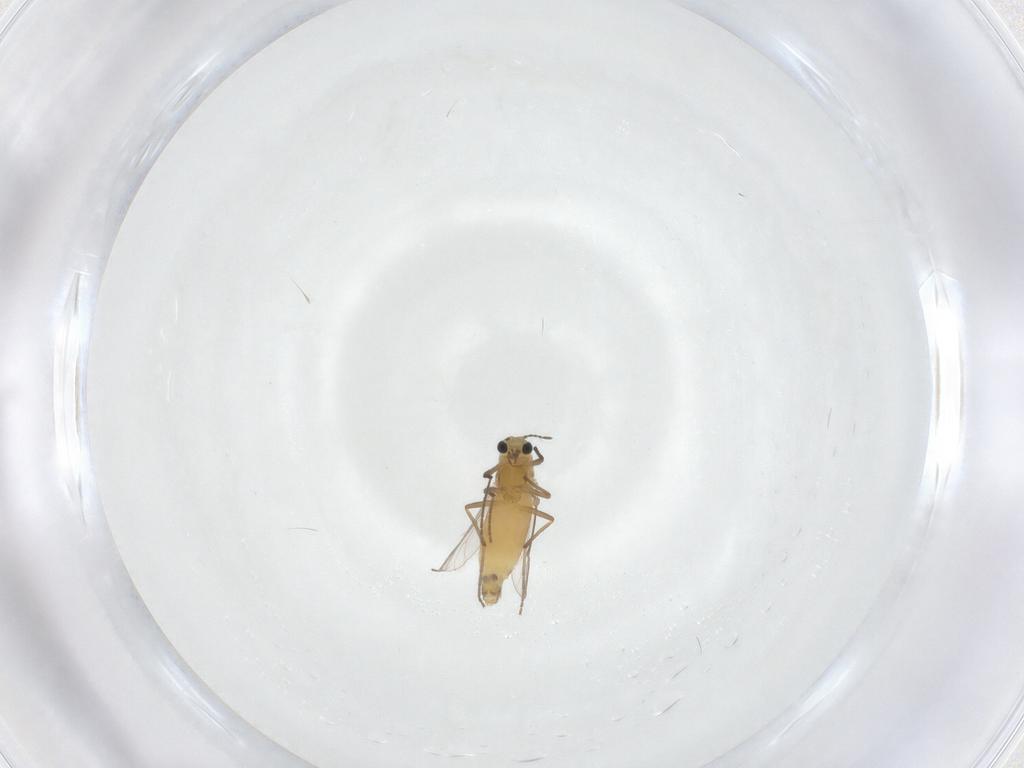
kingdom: Animalia
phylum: Arthropoda
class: Insecta
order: Diptera
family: Chironomidae
